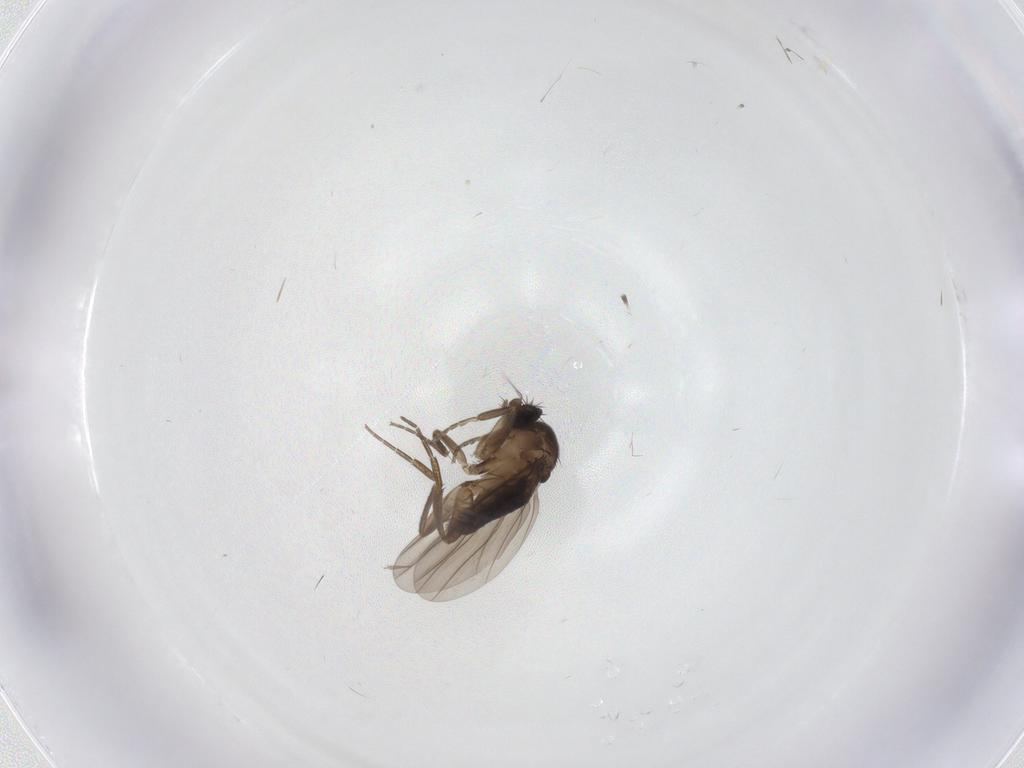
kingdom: Animalia
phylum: Arthropoda
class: Insecta
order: Diptera
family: Phoridae
